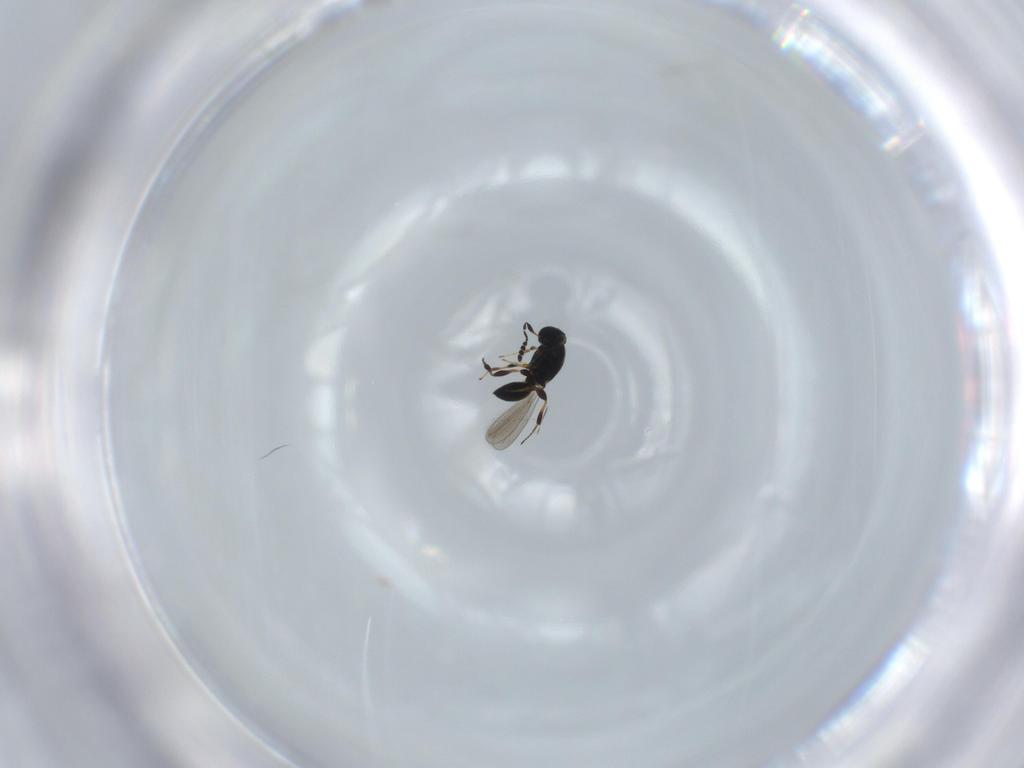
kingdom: Animalia
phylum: Arthropoda
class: Insecta
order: Hymenoptera
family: Platygastridae
